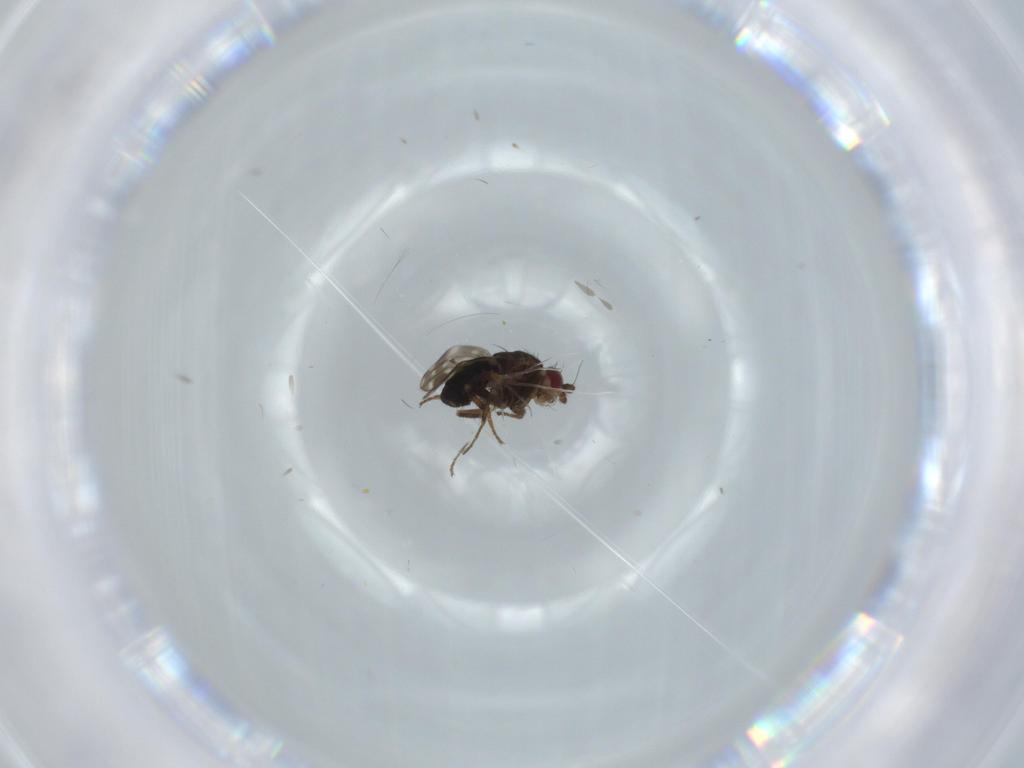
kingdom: Animalia
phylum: Arthropoda
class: Insecta
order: Diptera
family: Sphaeroceridae
